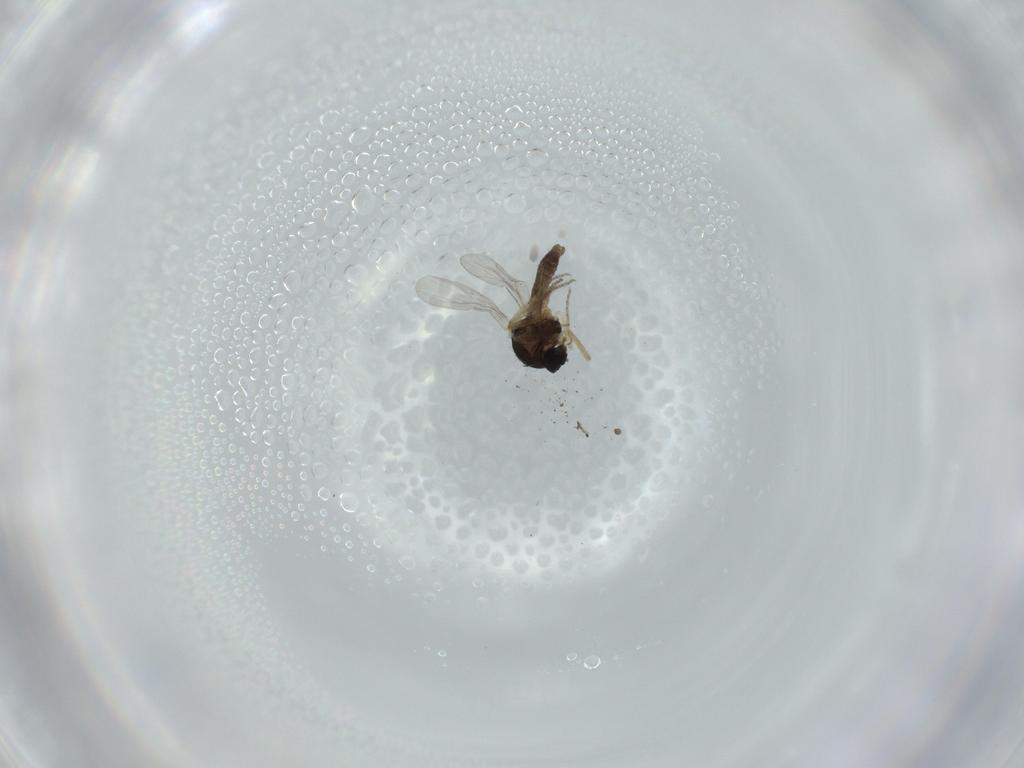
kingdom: Animalia
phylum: Arthropoda
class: Insecta
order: Diptera
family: Ceratopogonidae
